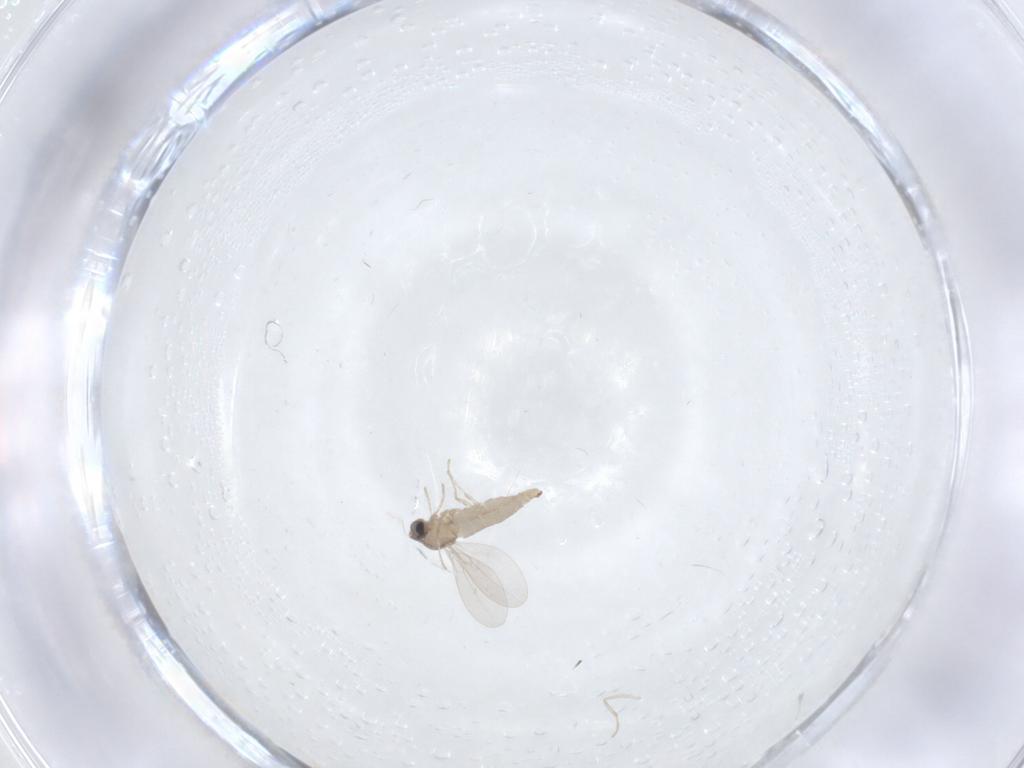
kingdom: Animalia
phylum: Arthropoda
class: Insecta
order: Diptera
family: Cecidomyiidae
